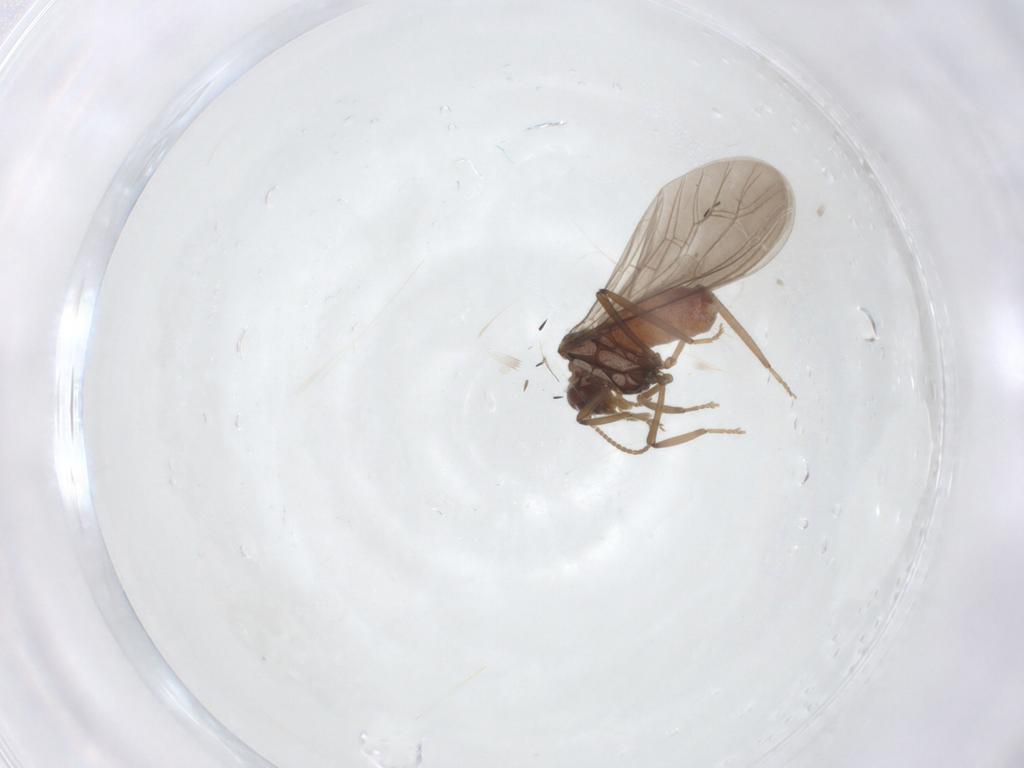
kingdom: Animalia
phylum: Arthropoda
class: Insecta
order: Neuroptera
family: Coniopterygidae
